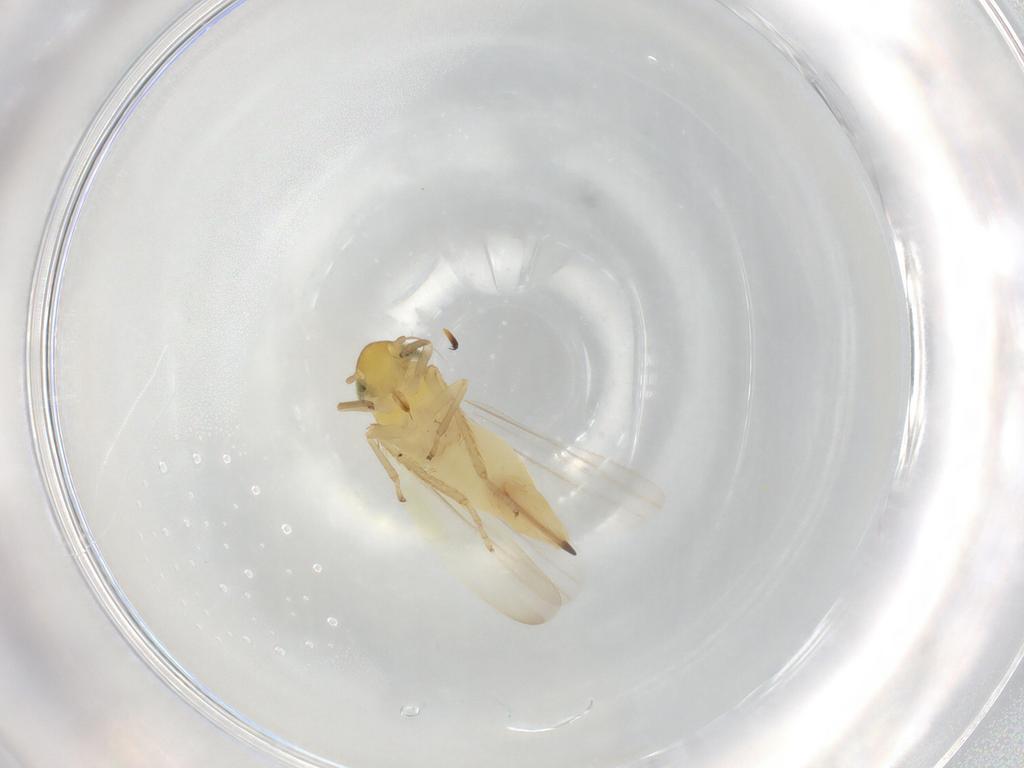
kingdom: Animalia
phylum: Arthropoda
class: Insecta
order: Hemiptera
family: Cicadellidae
